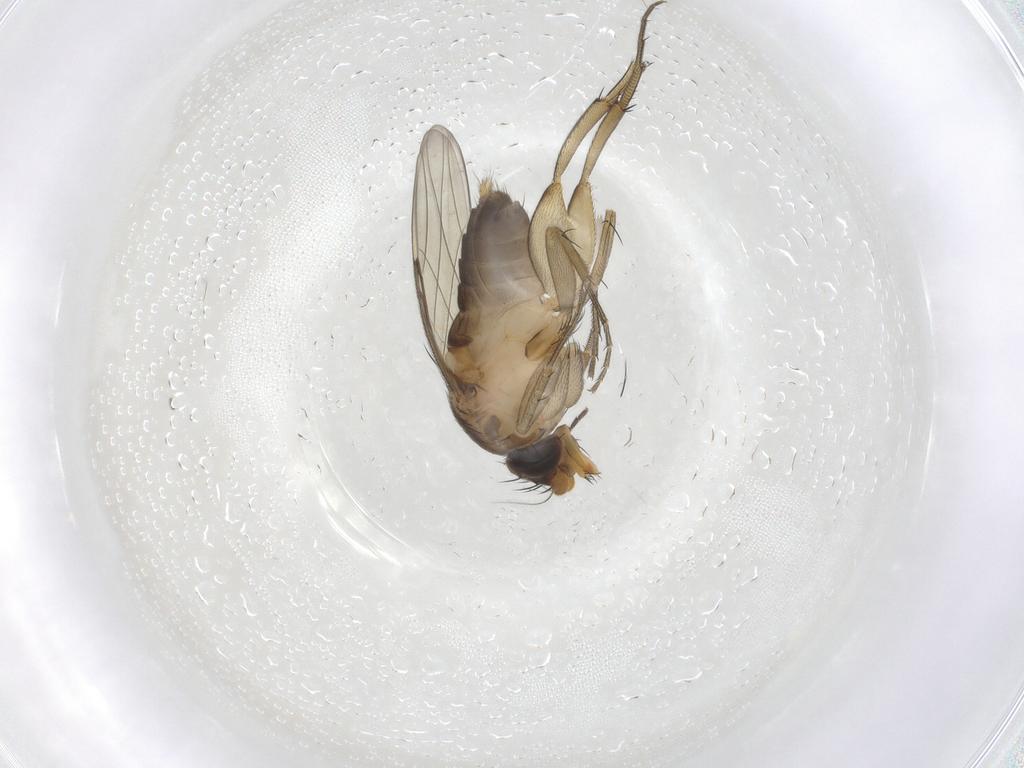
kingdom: Animalia
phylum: Arthropoda
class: Insecta
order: Diptera
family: Phoridae
